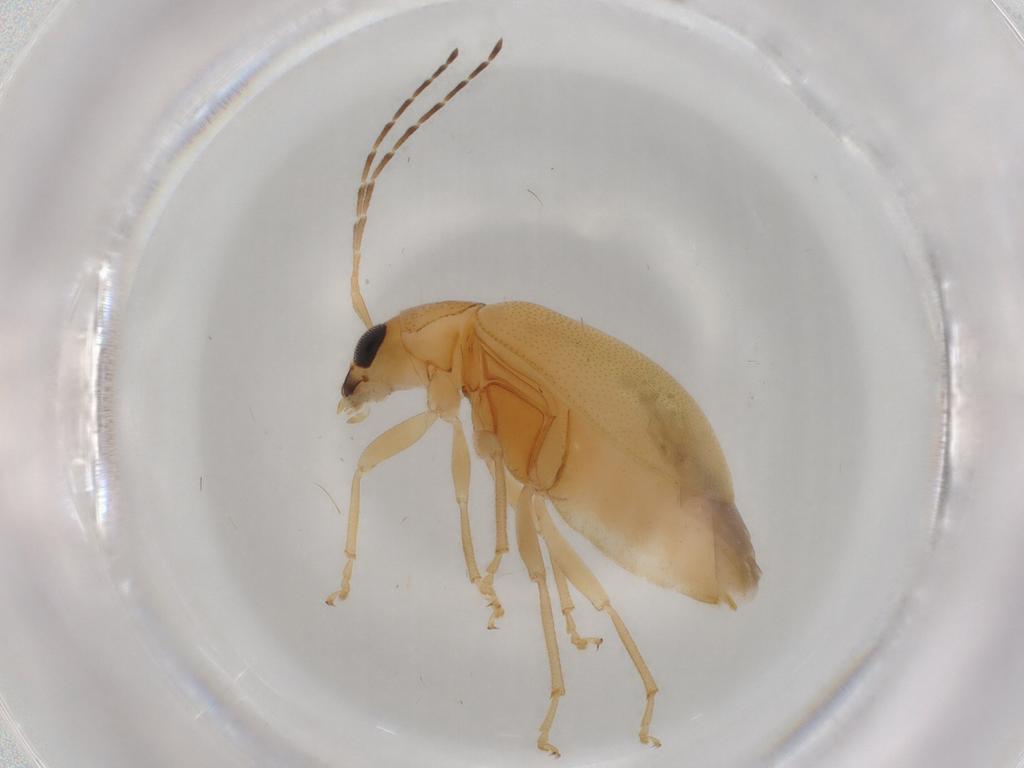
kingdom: Animalia
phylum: Arthropoda
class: Insecta
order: Coleoptera
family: Chrysomelidae
